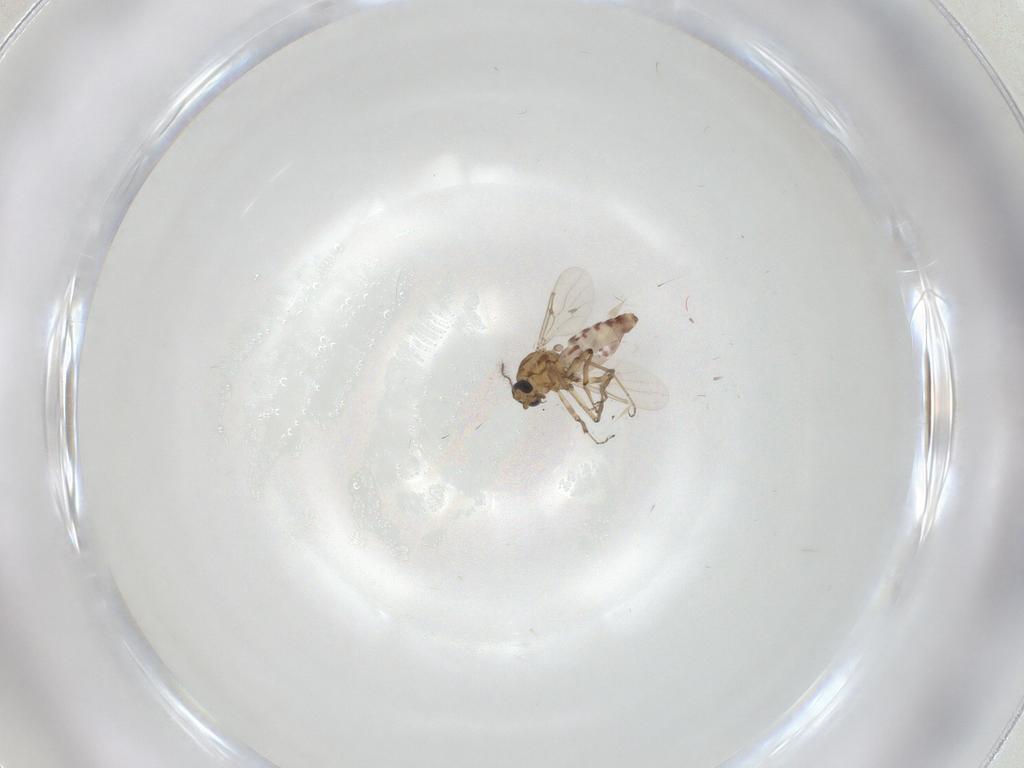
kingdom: Animalia
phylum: Arthropoda
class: Insecta
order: Diptera
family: Ceratopogonidae
